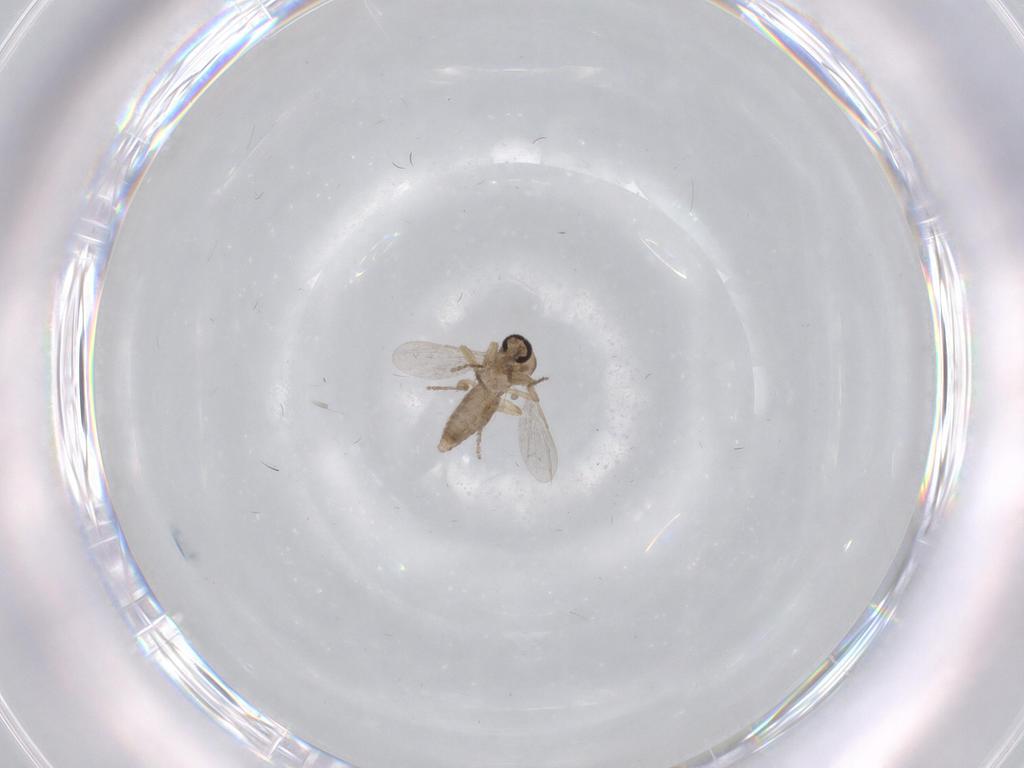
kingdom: Animalia
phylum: Arthropoda
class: Insecta
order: Diptera
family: Ceratopogonidae
